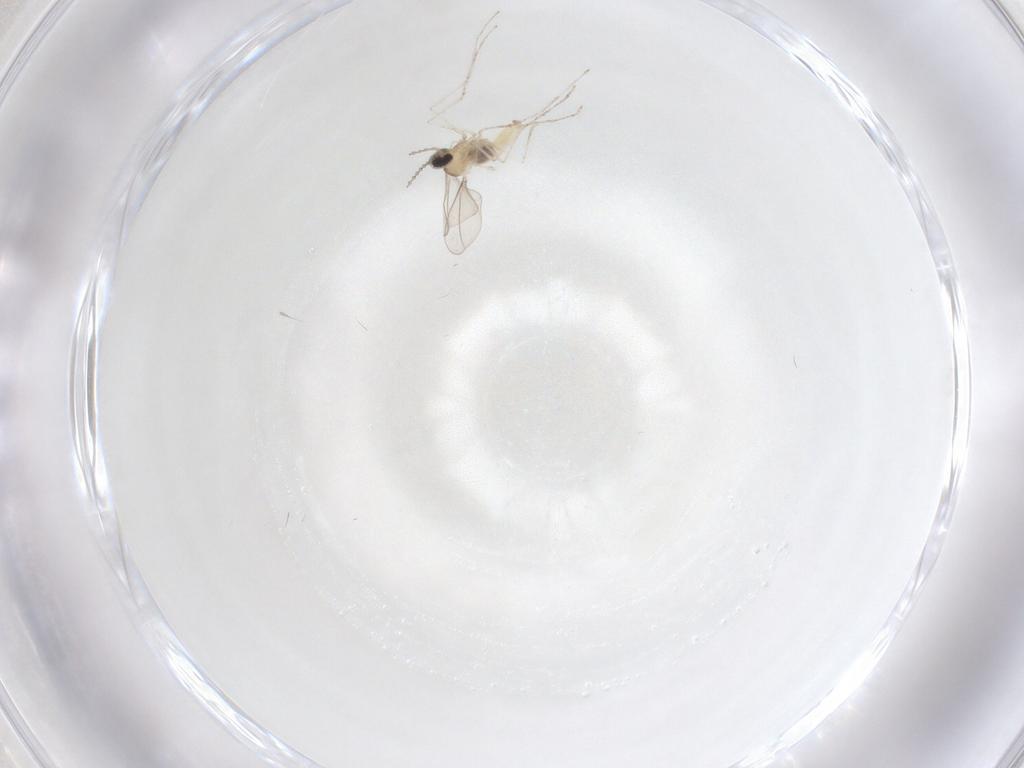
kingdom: Animalia
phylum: Arthropoda
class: Insecta
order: Diptera
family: Cecidomyiidae
